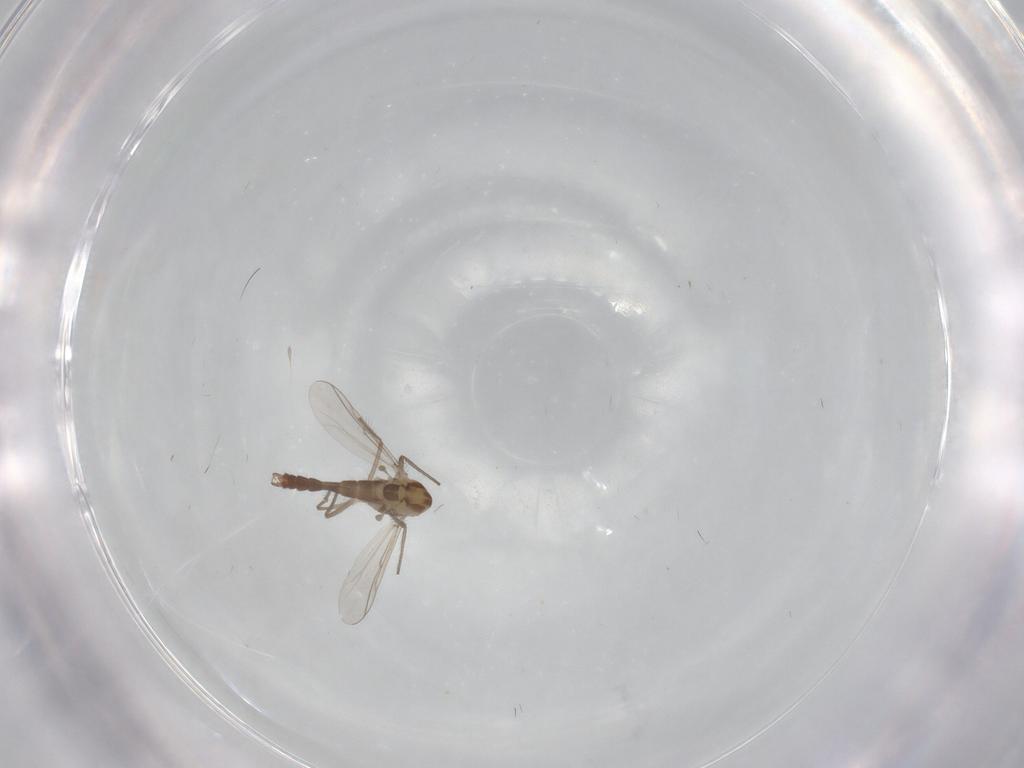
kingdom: Animalia
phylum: Arthropoda
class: Insecta
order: Diptera
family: Chironomidae
